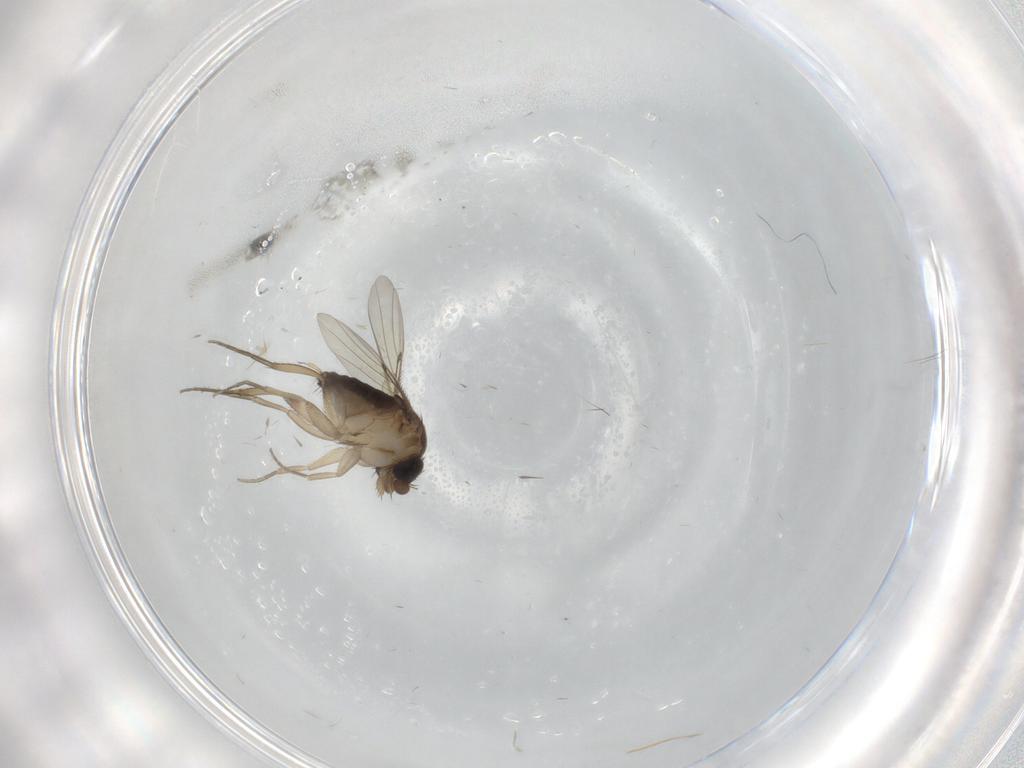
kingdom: Animalia
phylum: Arthropoda
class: Insecta
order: Diptera
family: Phoridae
